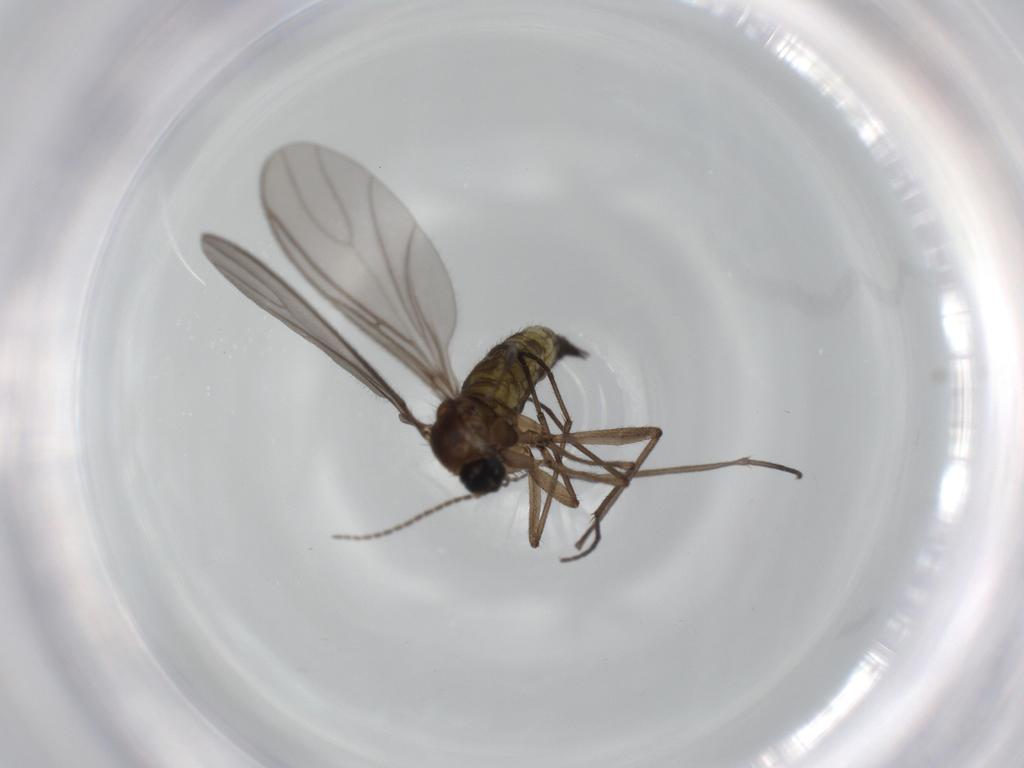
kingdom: Animalia
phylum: Arthropoda
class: Insecta
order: Diptera
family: Sciaridae
